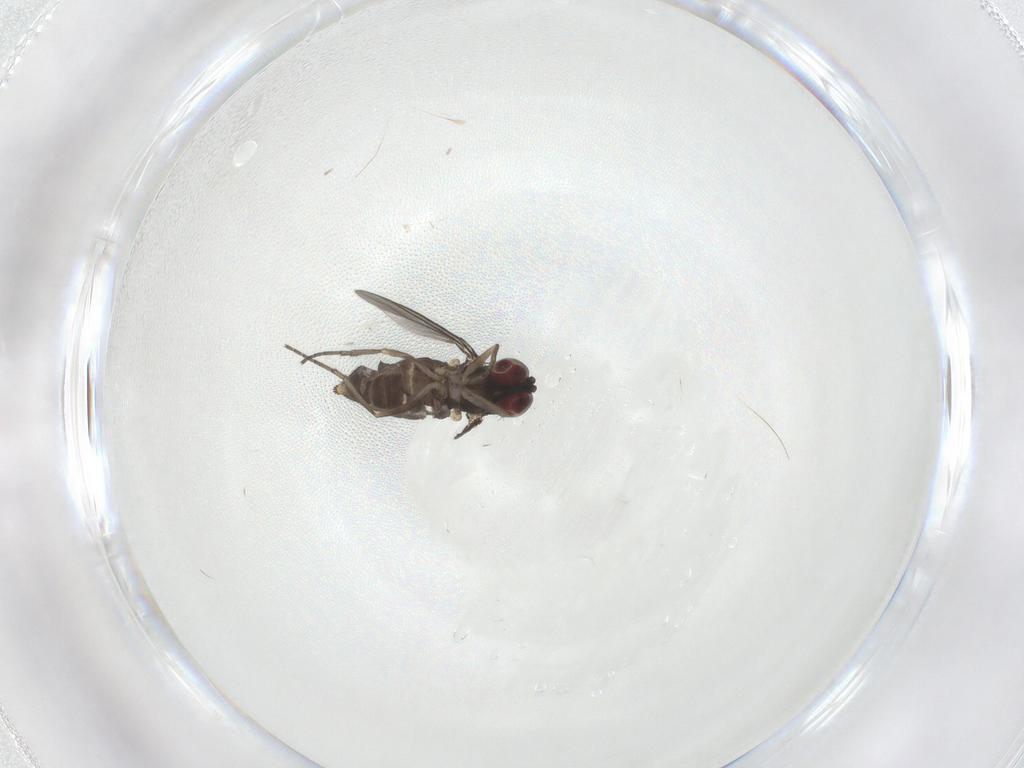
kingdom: Animalia
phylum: Arthropoda
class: Insecta
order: Diptera
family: Dolichopodidae
